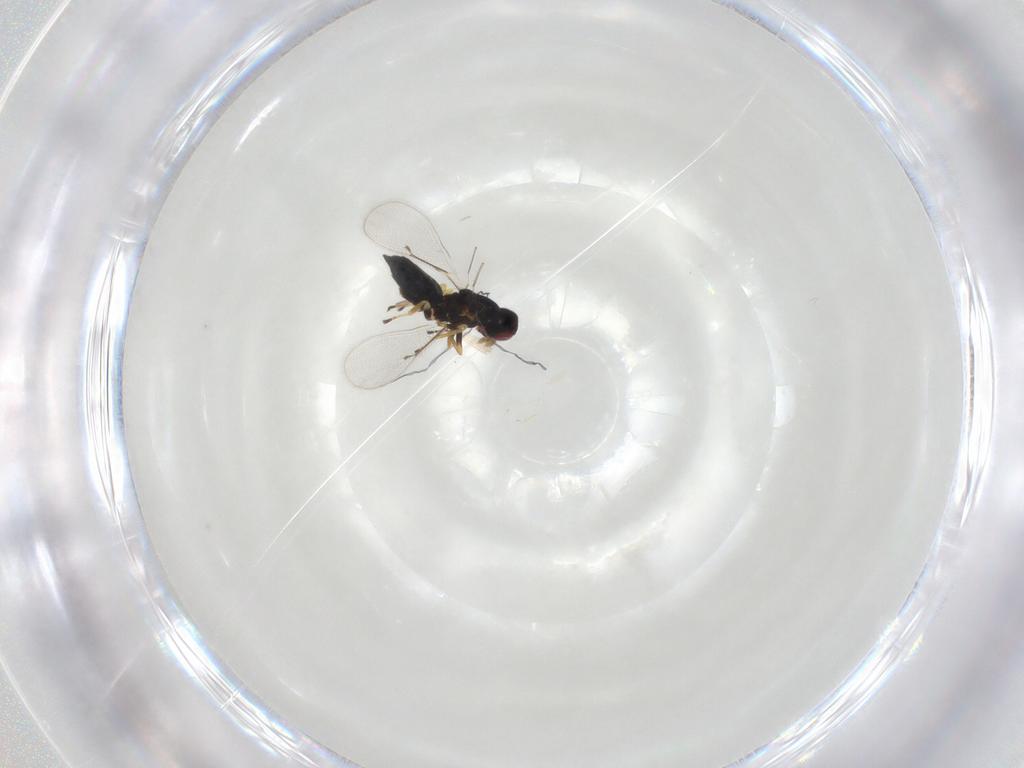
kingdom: Animalia
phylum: Arthropoda
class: Insecta
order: Hymenoptera
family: Eulophidae
